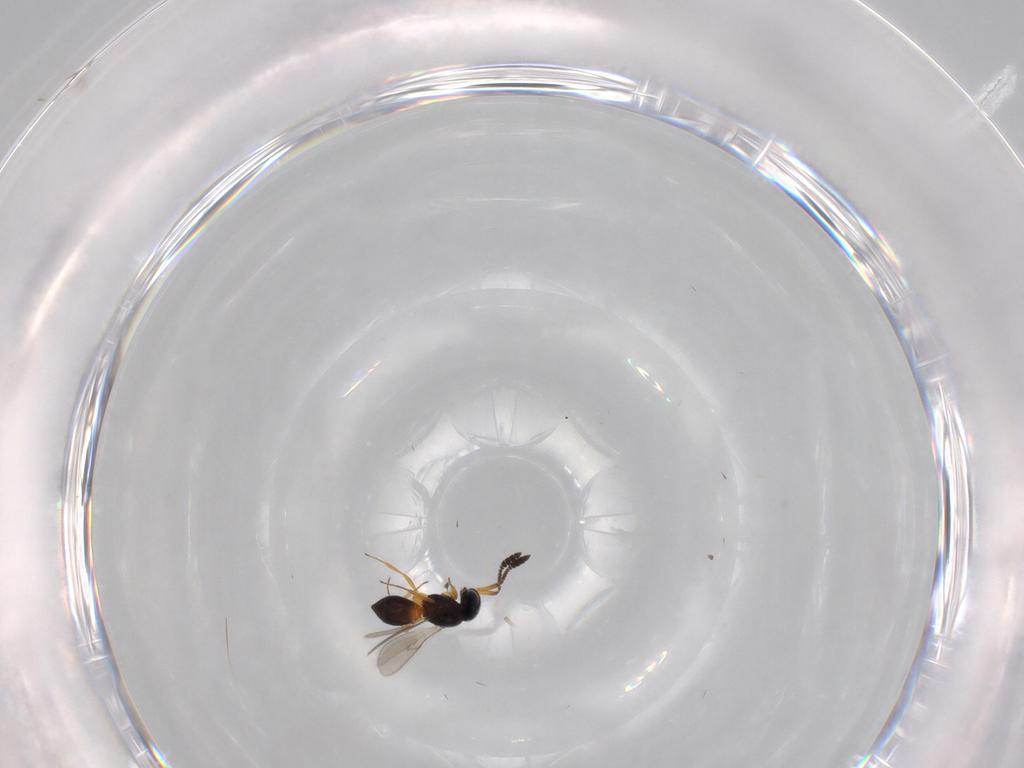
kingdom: Animalia
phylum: Arthropoda
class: Insecta
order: Hymenoptera
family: Scelionidae
